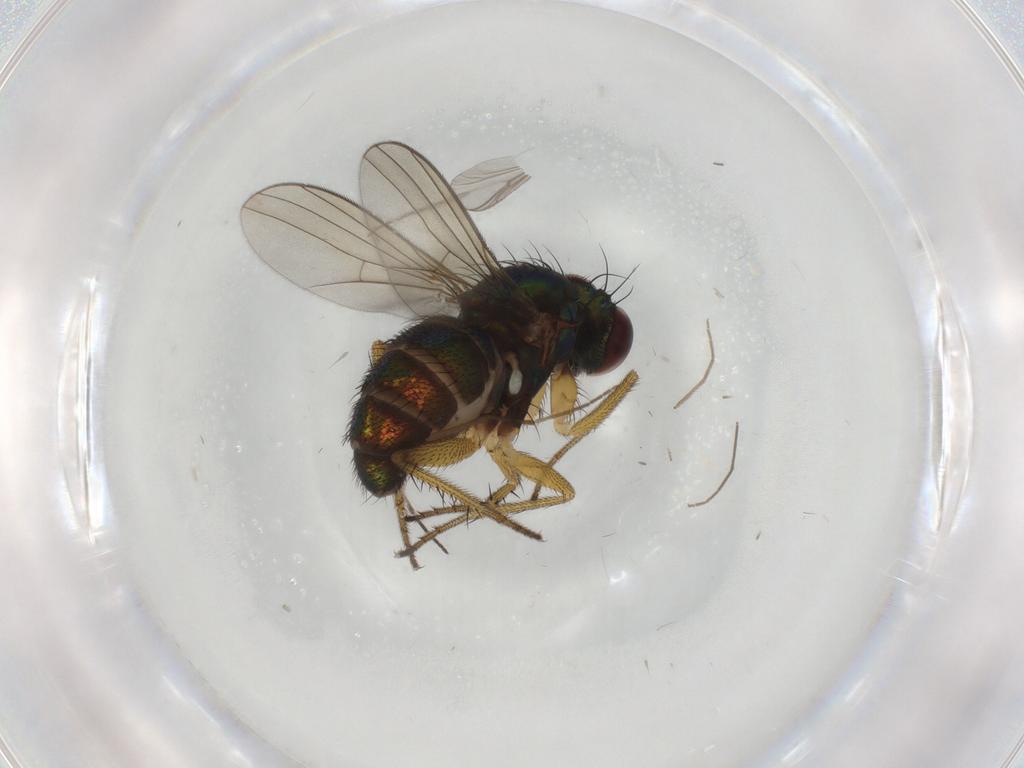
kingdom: Animalia
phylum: Arthropoda
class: Insecta
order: Diptera
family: Dolichopodidae
